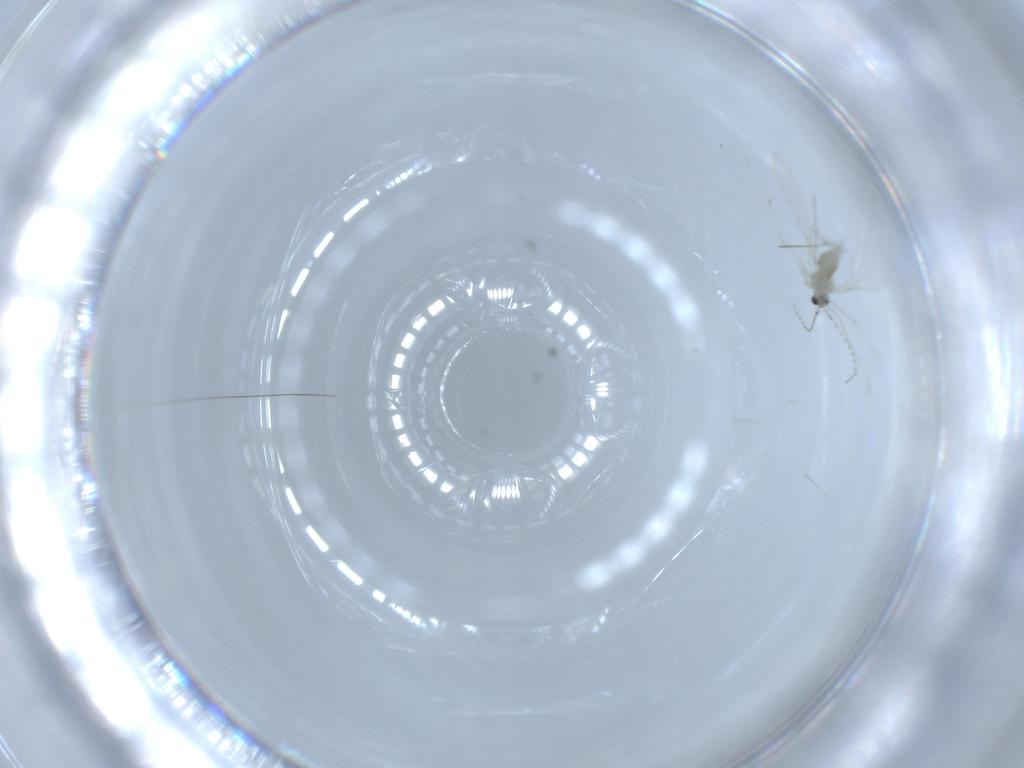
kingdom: Animalia
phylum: Arthropoda
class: Insecta
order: Diptera
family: Cecidomyiidae
